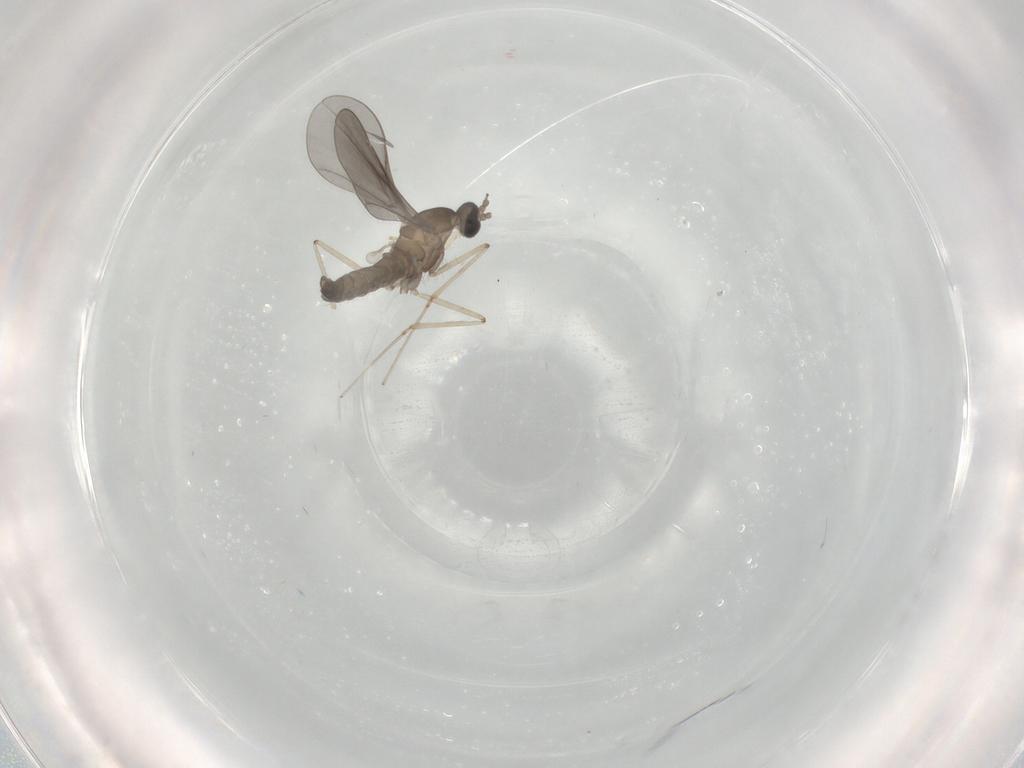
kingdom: Animalia
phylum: Arthropoda
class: Insecta
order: Diptera
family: Cecidomyiidae
